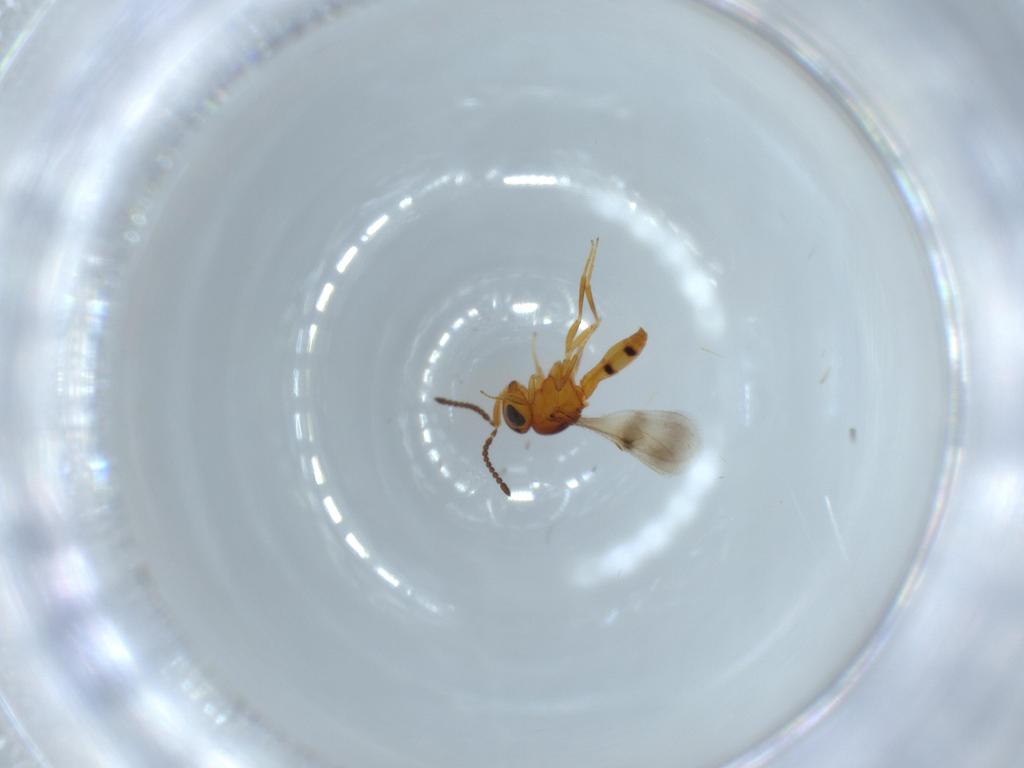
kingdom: Animalia
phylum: Arthropoda
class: Insecta
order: Hymenoptera
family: Scelionidae
